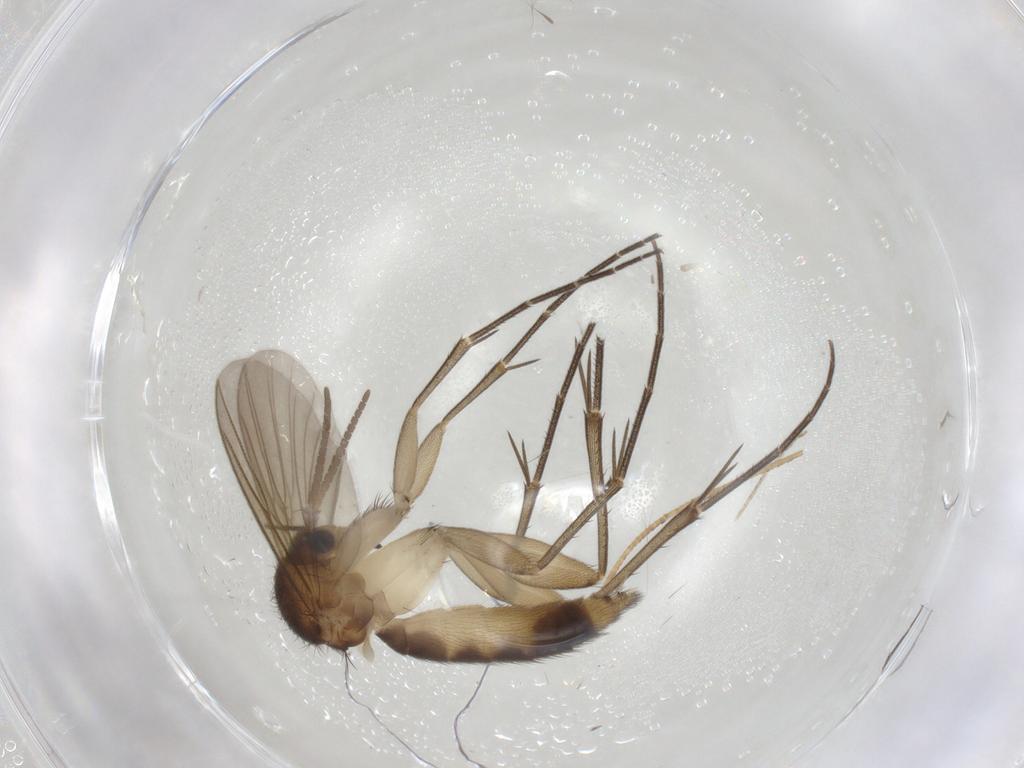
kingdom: Animalia
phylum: Arthropoda
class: Insecta
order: Diptera
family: Mycetophilidae
